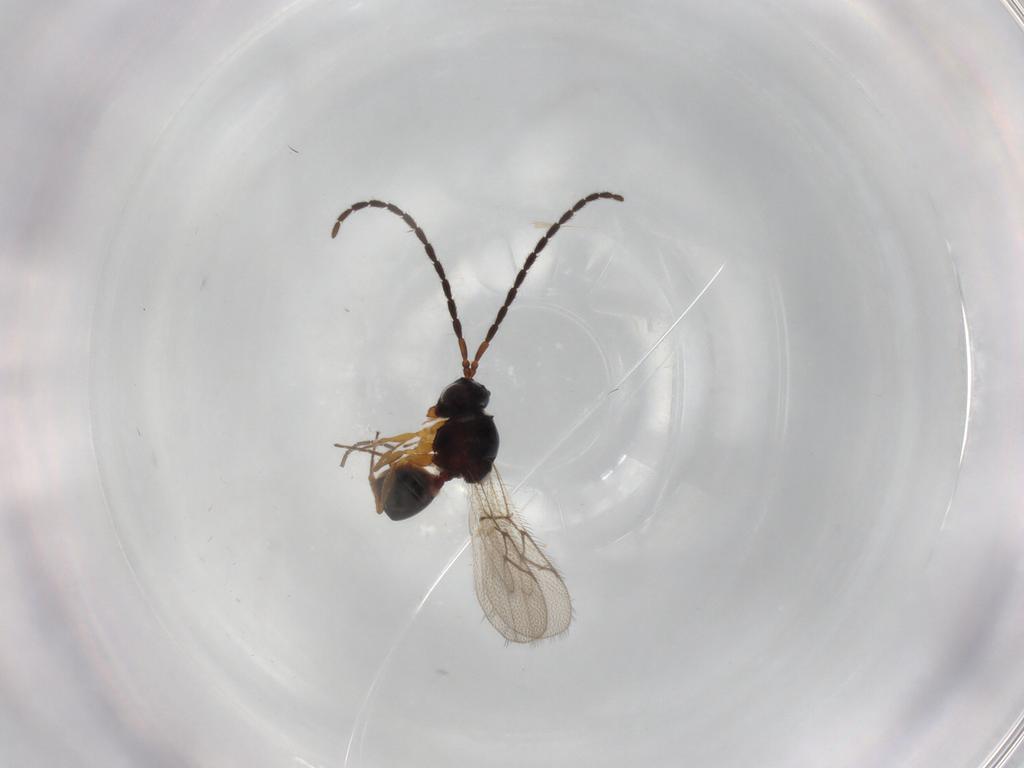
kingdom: Animalia
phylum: Arthropoda
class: Insecta
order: Hymenoptera
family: Figitidae
